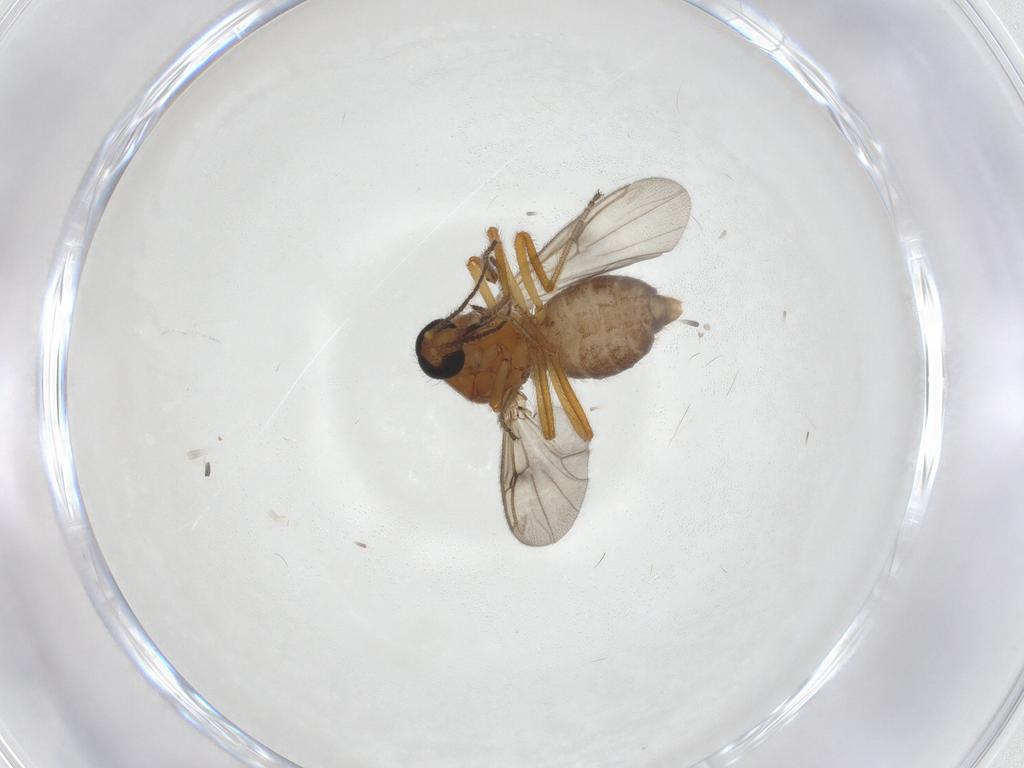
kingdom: Animalia
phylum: Arthropoda
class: Insecta
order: Diptera
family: Ceratopogonidae
